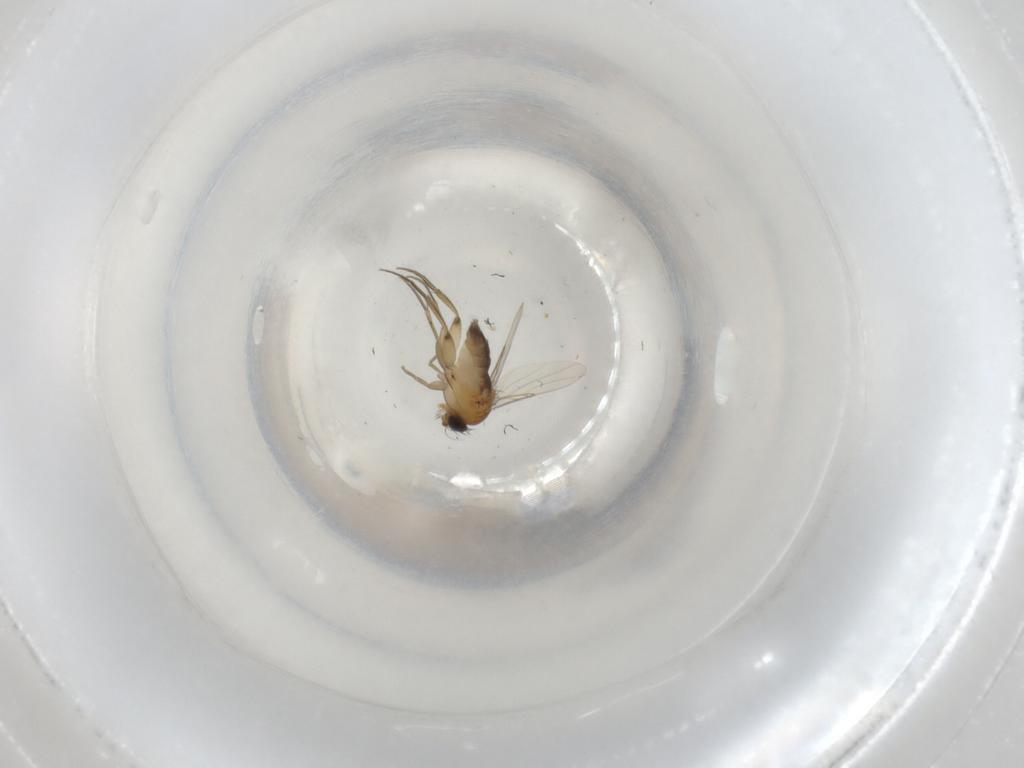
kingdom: Animalia
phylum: Arthropoda
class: Insecta
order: Diptera
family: Phoridae
